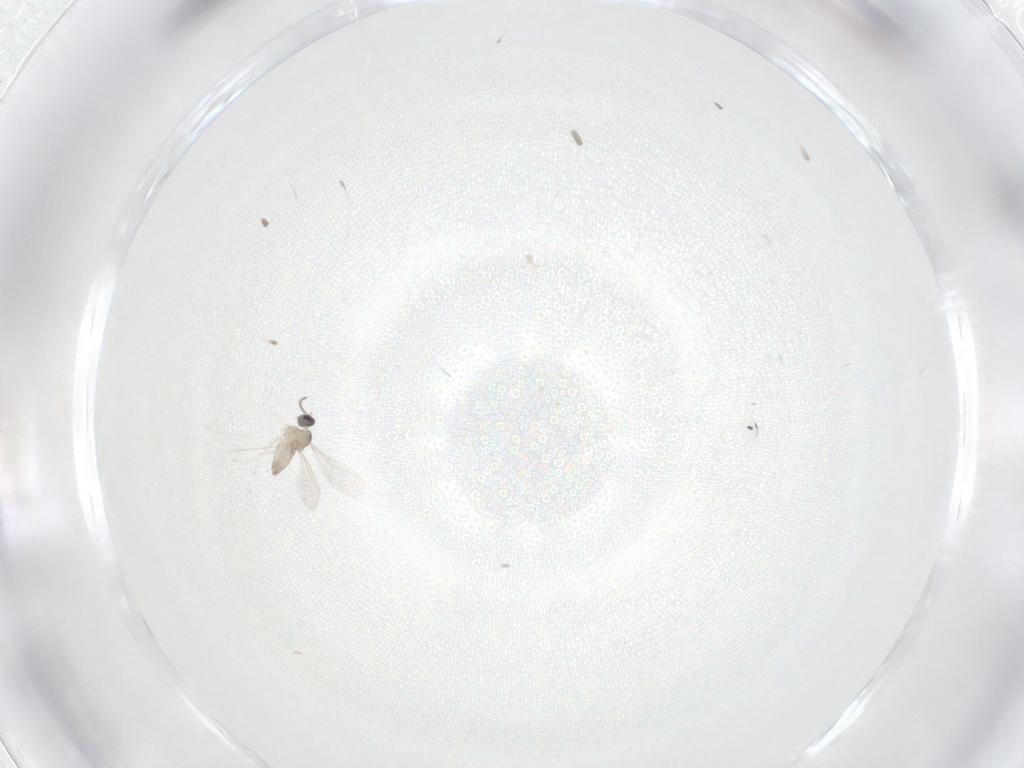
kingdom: Animalia
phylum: Arthropoda
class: Insecta
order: Diptera
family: Cecidomyiidae
